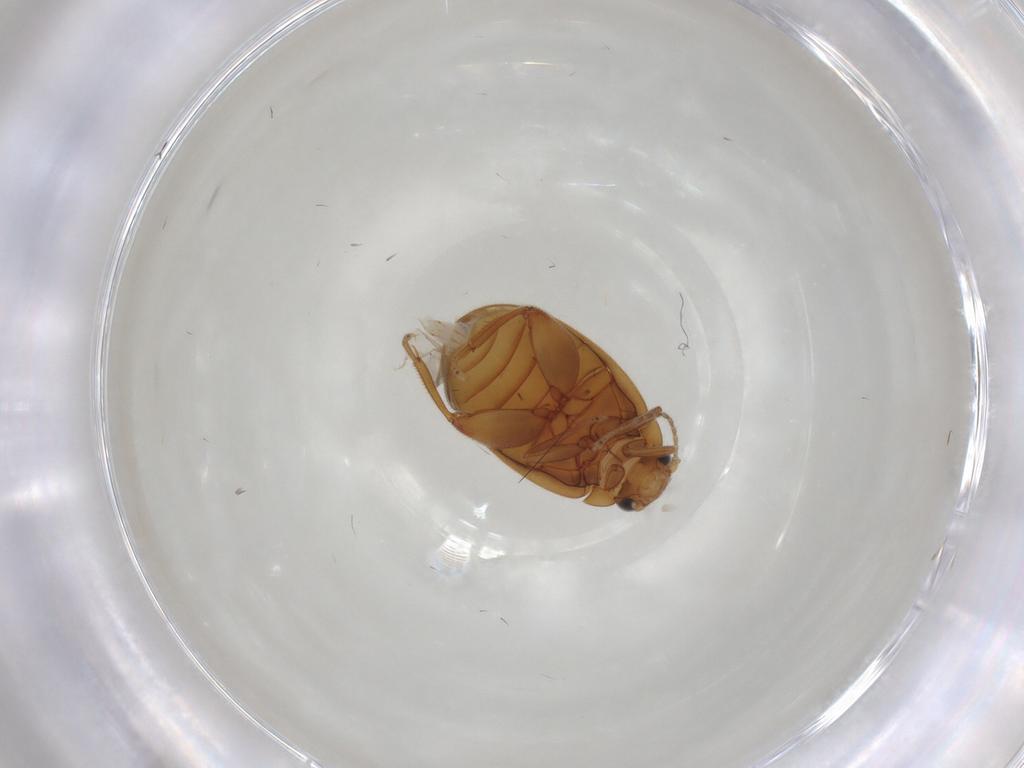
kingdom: Animalia
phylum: Arthropoda
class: Insecta
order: Coleoptera
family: Scirtidae
